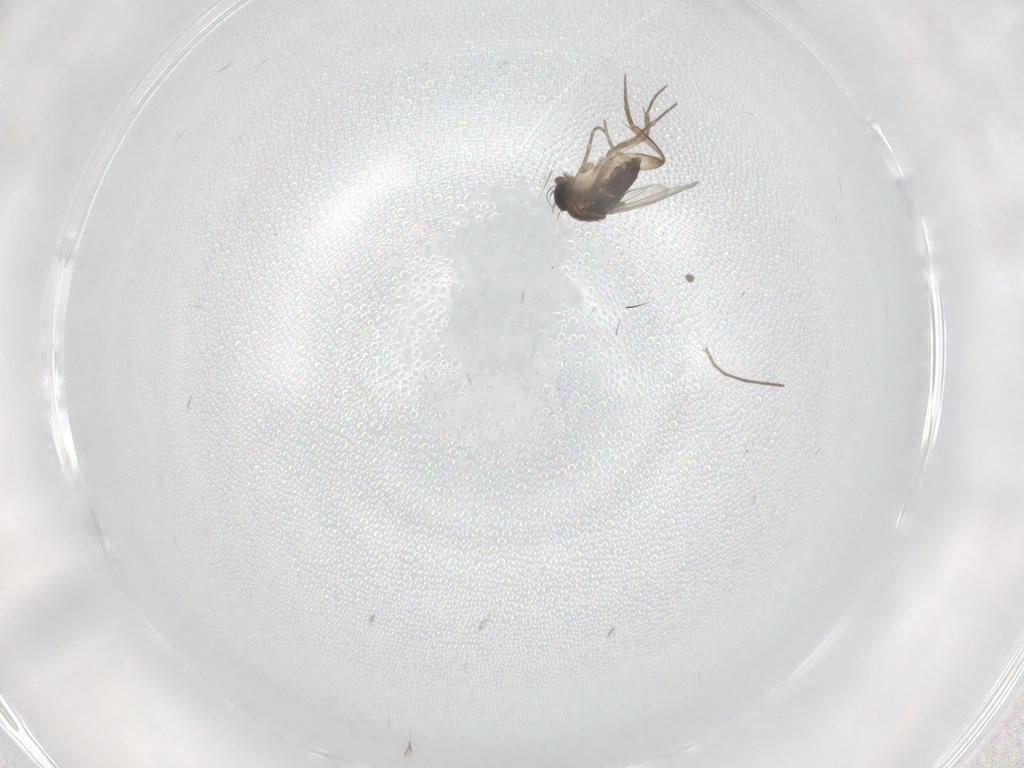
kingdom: Animalia
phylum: Arthropoda
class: Insecta
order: Diptera
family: Phoridae
